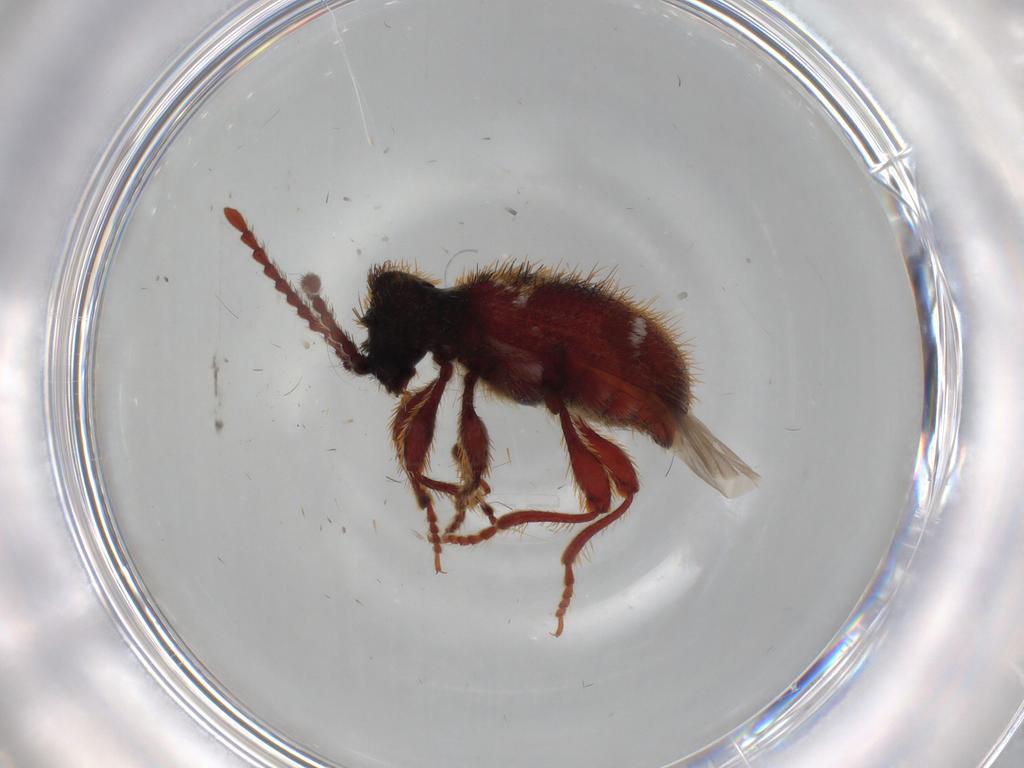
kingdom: Animalia
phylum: Arthropoda
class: Insecta
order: Coleoptera
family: Ptinidae
